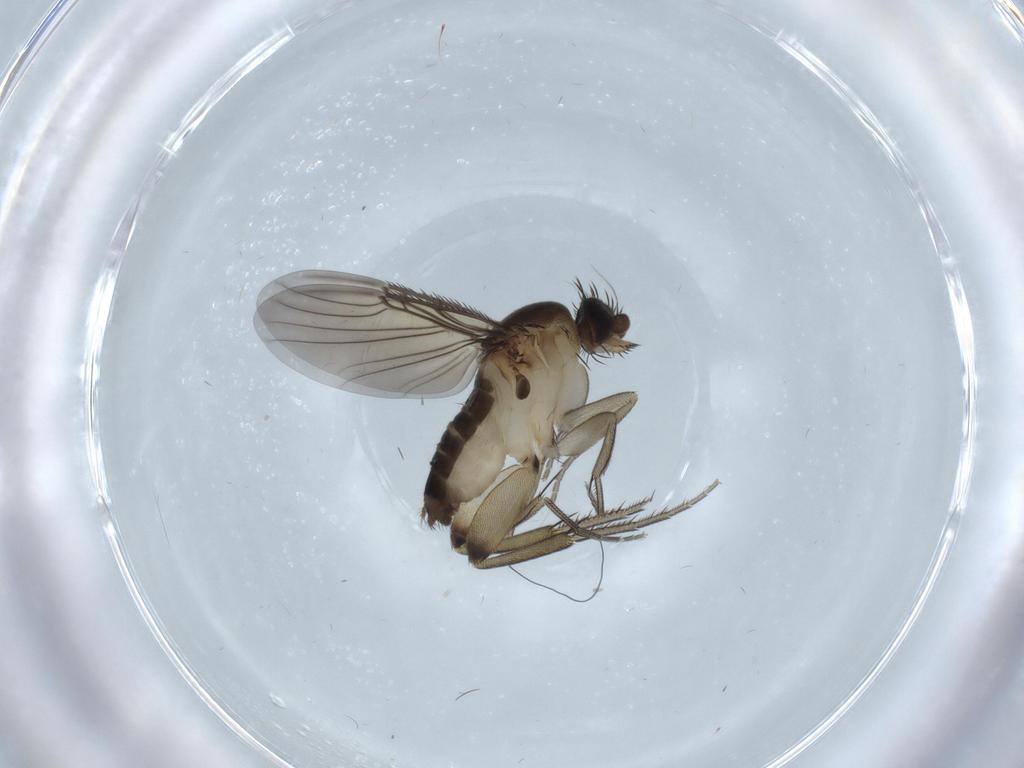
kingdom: Animalia
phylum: Arthropoda
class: Insecta
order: Diptera
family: Phoridae
